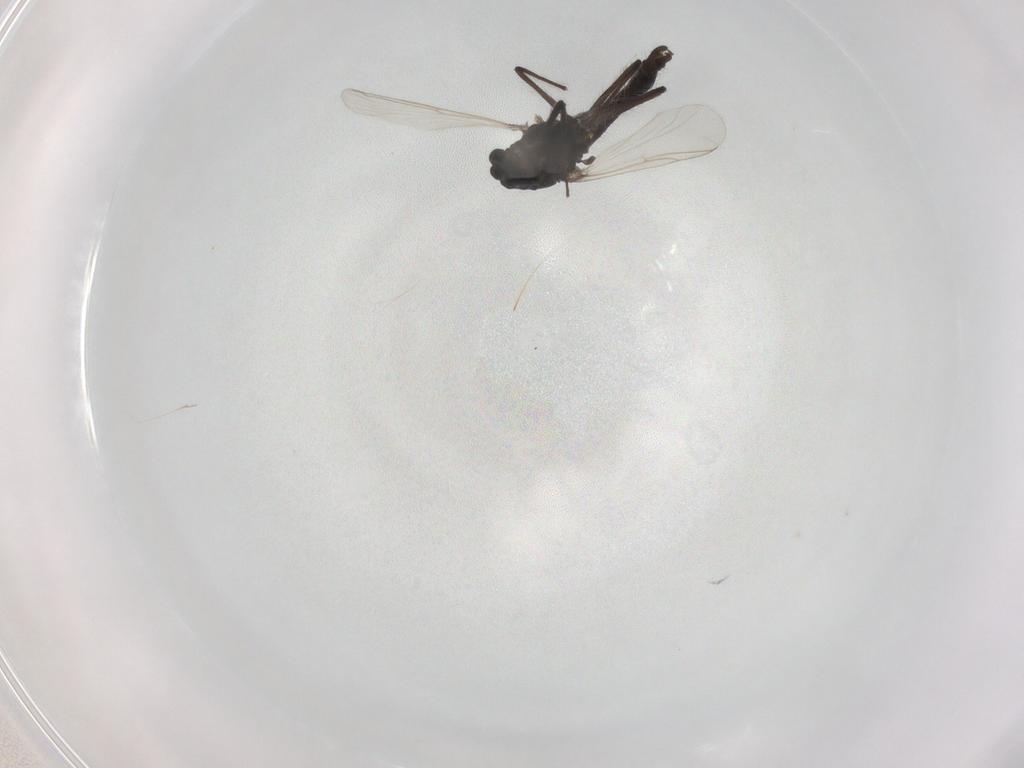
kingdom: Animalia
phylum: Arthropoda
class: Insecta
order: Diptera
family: Chironomidae
